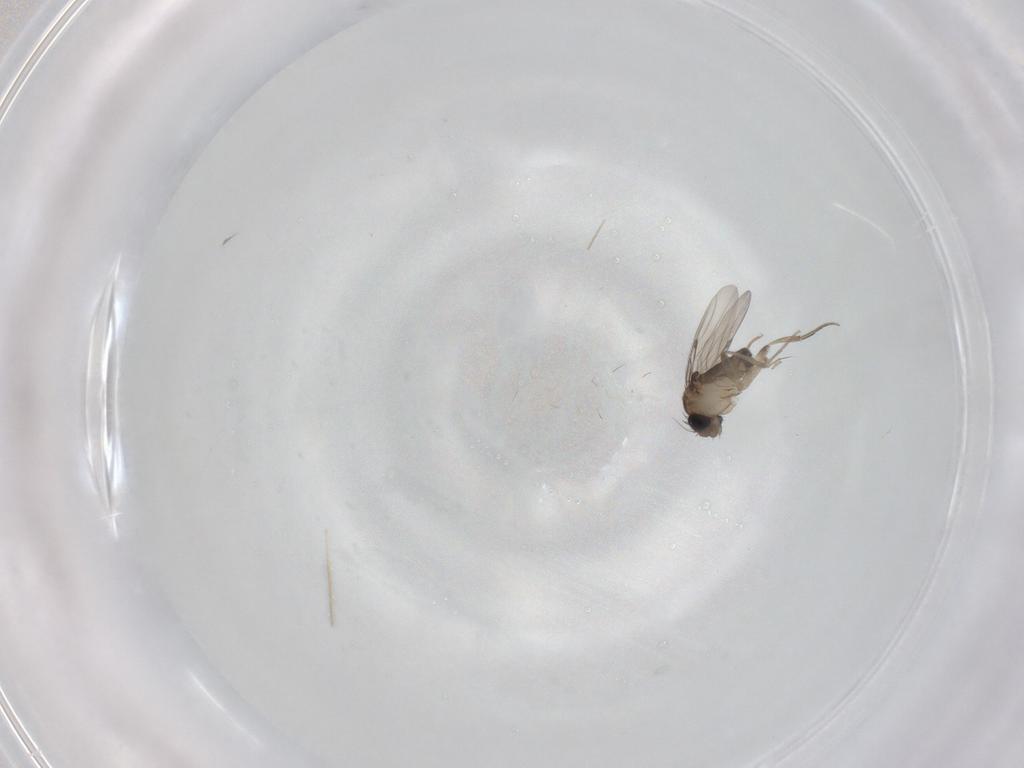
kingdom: Animalia
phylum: Arthropoda
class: Insecta
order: Diptera
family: Phoridae
